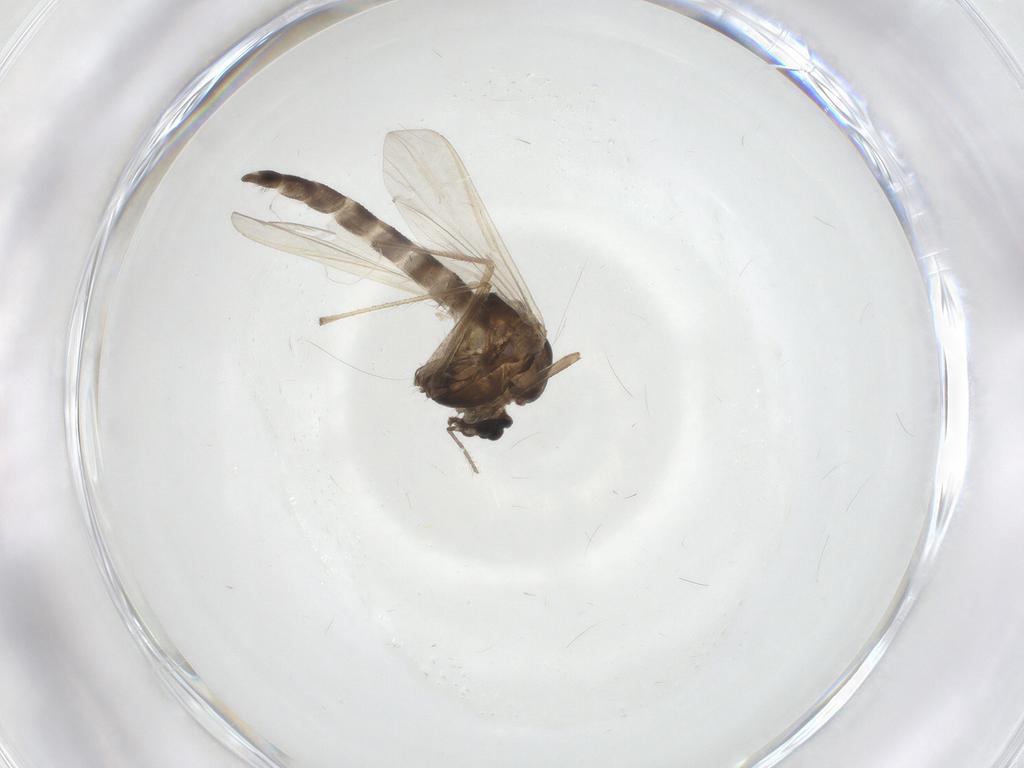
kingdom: Animalia
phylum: Arthropoda
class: Insecta
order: Diptera
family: Chironomidae
